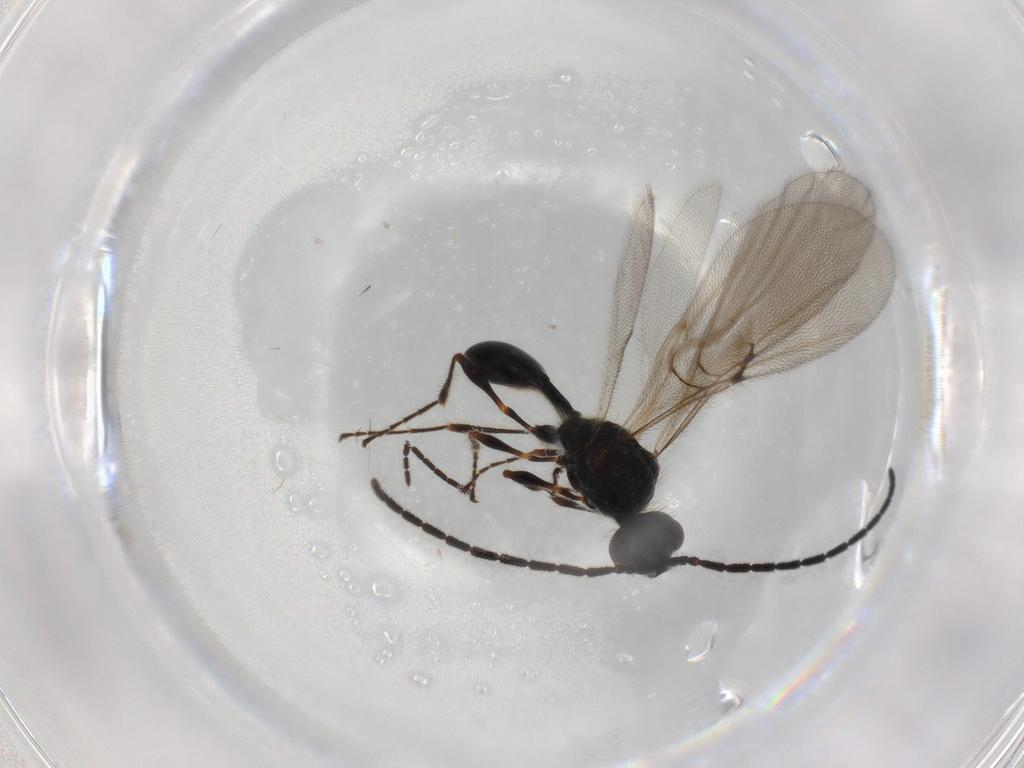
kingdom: Animalia
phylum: Arthropoda
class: Insecta
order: Hymenoptera
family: Diapriidae
